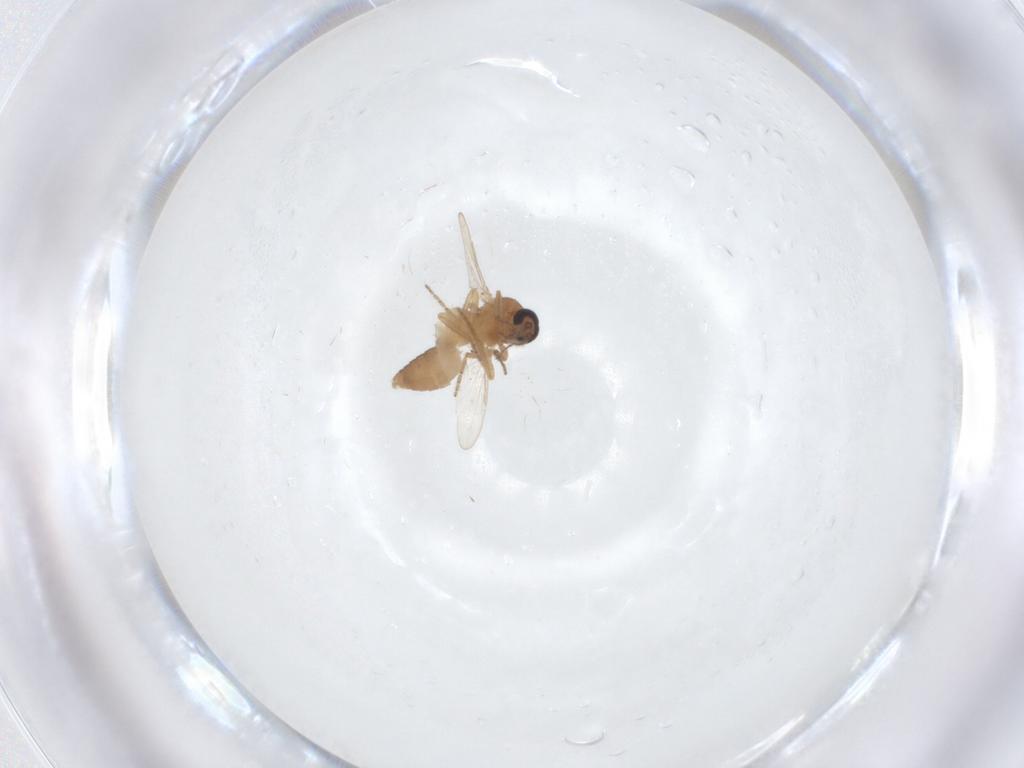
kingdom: Animalia
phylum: Arthropoda
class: Insecta
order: Diptera
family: Ceratopogonidae
